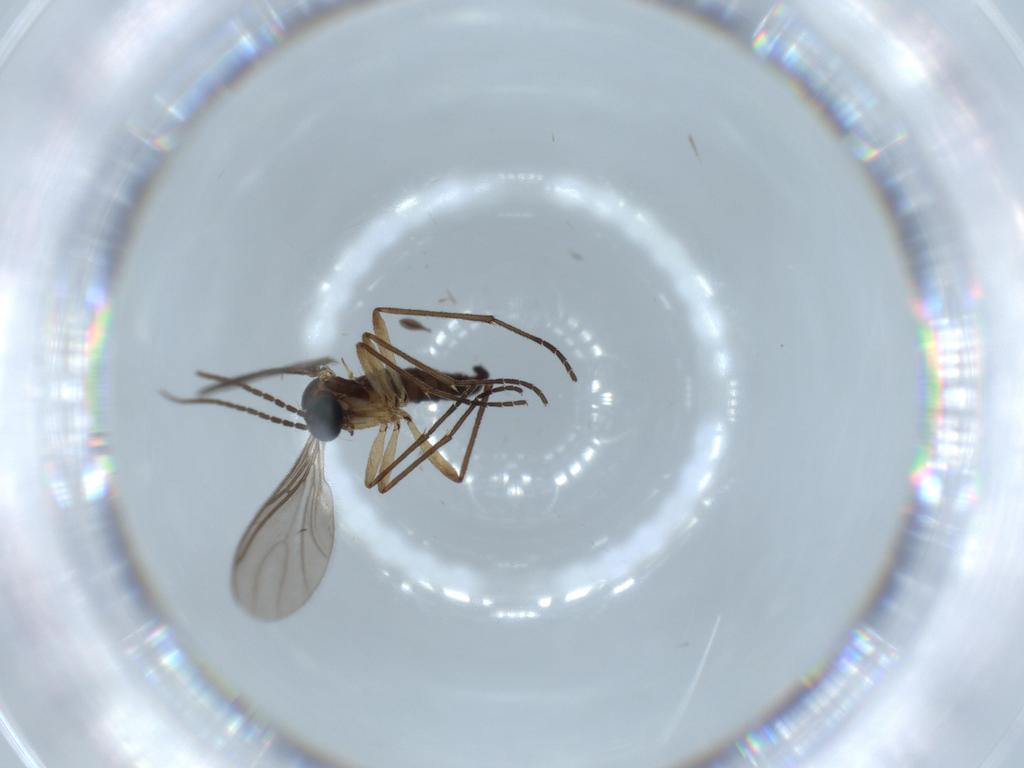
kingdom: Animalia
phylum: Arthropoda
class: Insecta
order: Diptera
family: Sciaridae
